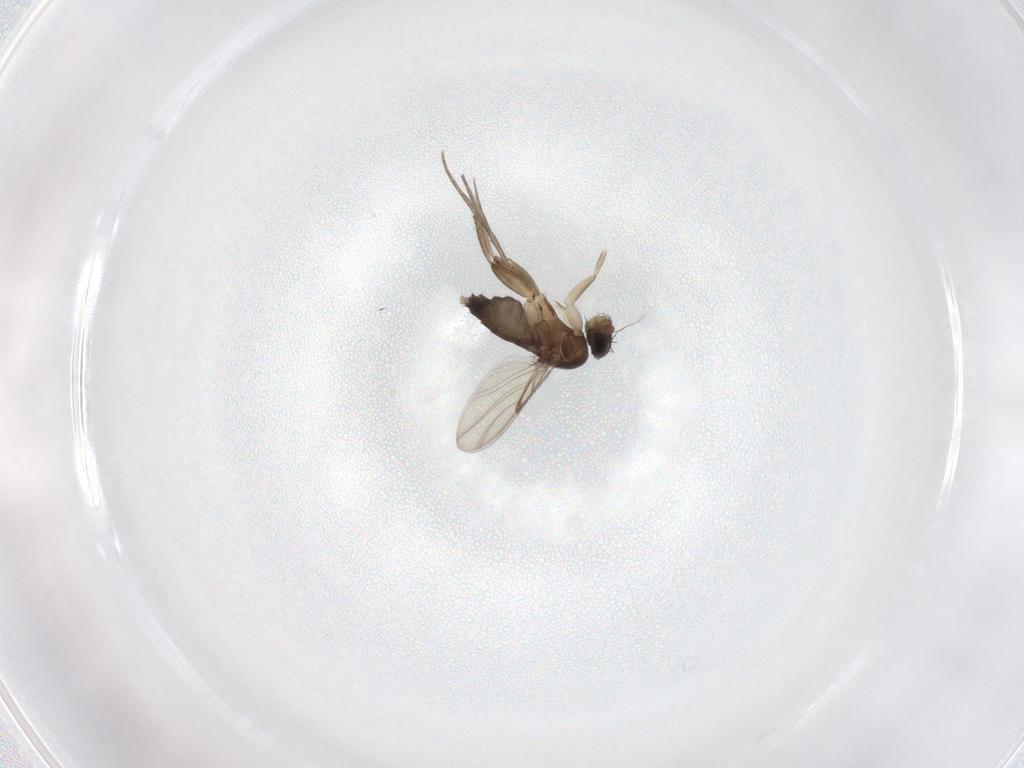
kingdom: Animalia
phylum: Arthropoda
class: Insecta
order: Diptera
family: Phoridae
